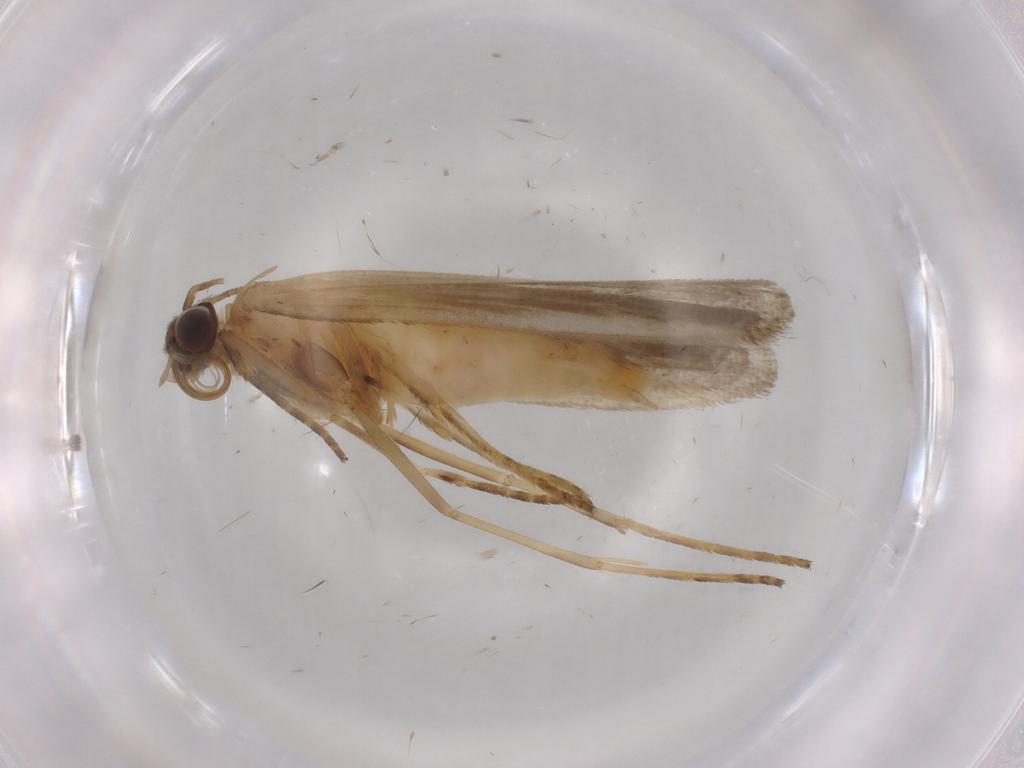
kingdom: Animalia
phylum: Arthropoda
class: Insecta
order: Lepidoptera
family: Noctuidae
